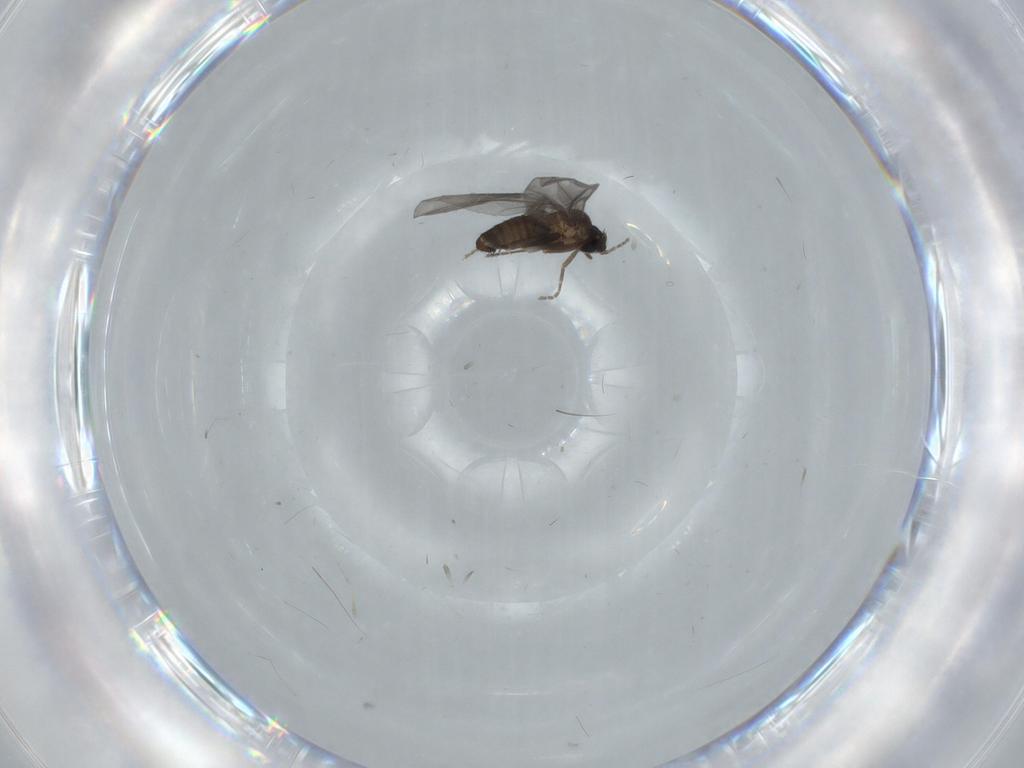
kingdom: Animalia
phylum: Arthropoda
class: Insecta
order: Diptera
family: Phoridae
